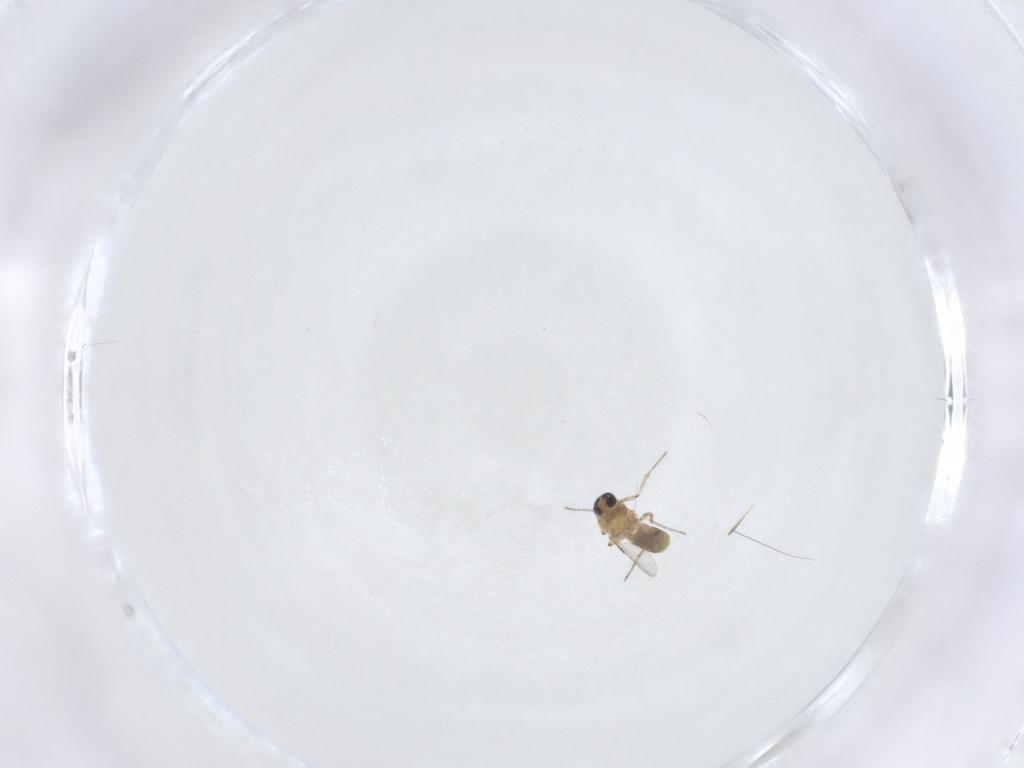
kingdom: Animalia
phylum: Arthropoda
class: Insecta
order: Diptera
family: Ceratopogonidae
